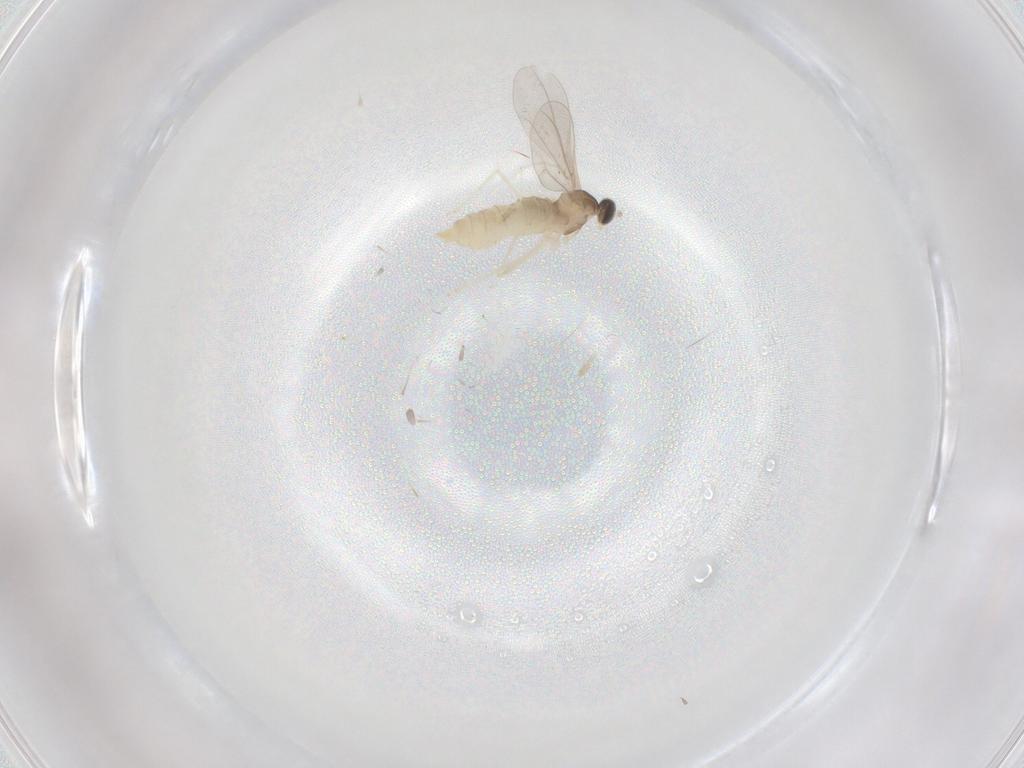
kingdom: Animalia
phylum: Arthropoda
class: Insecta
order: Diptera
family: Cecidomyiidae
